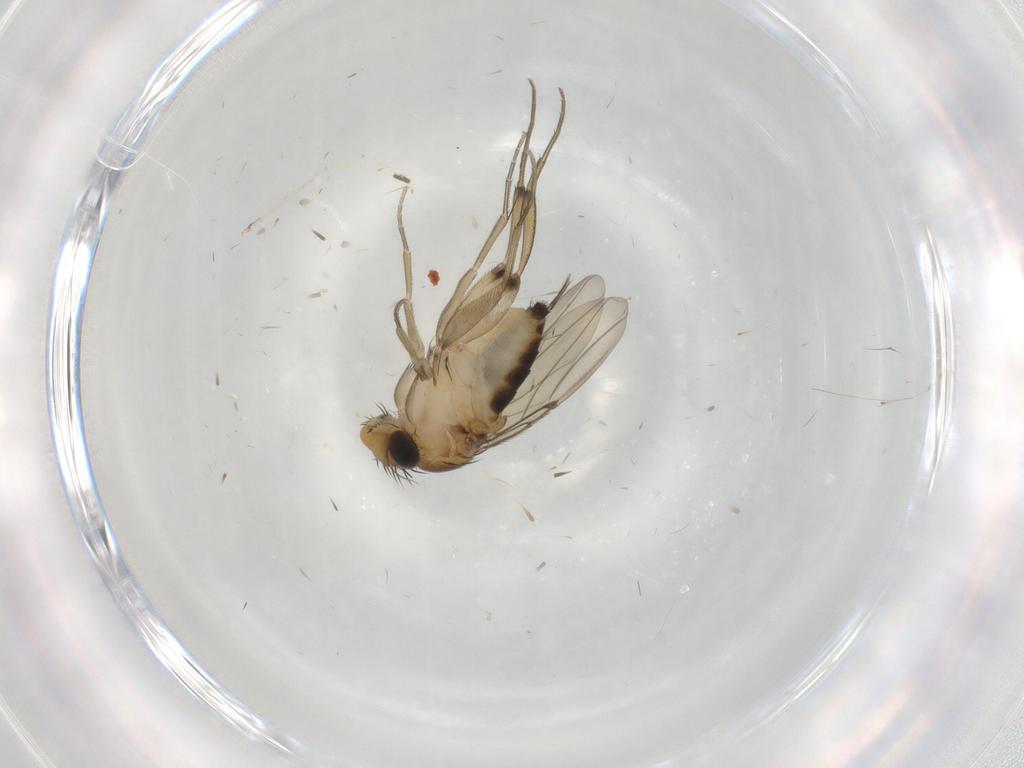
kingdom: Animalia
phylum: Arthropoda
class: Insecta
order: Diptera
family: Cecidomyiidae
